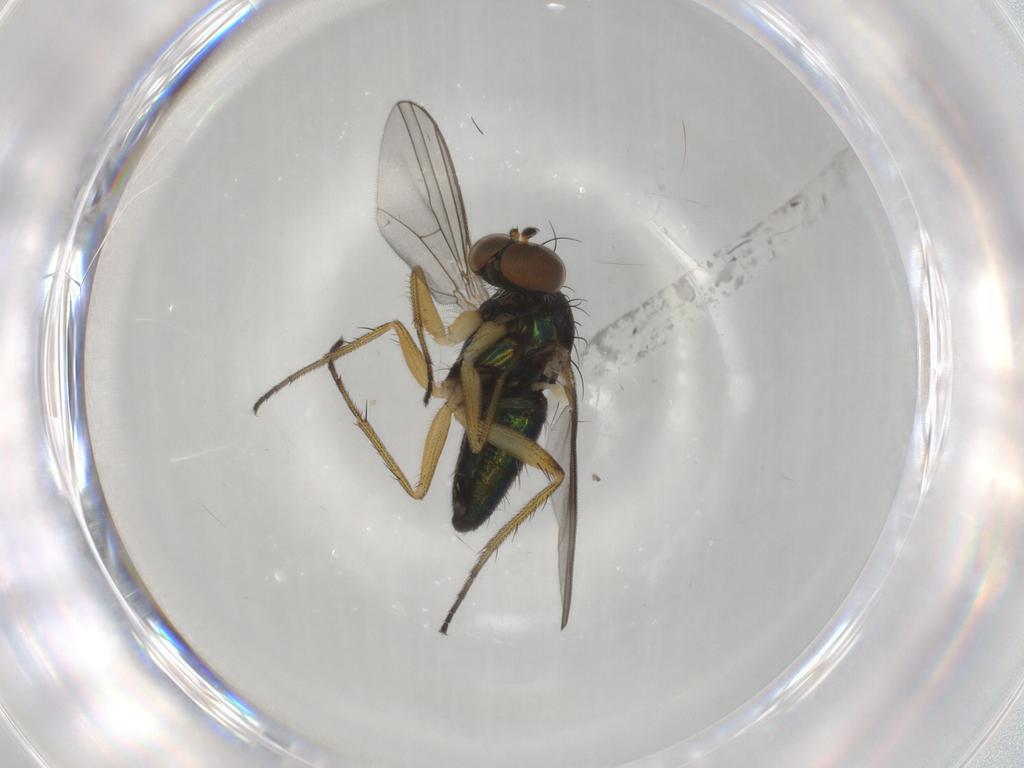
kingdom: Animalia
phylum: Arthropoda
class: Insecta
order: Diptera
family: Dolichopodidae
